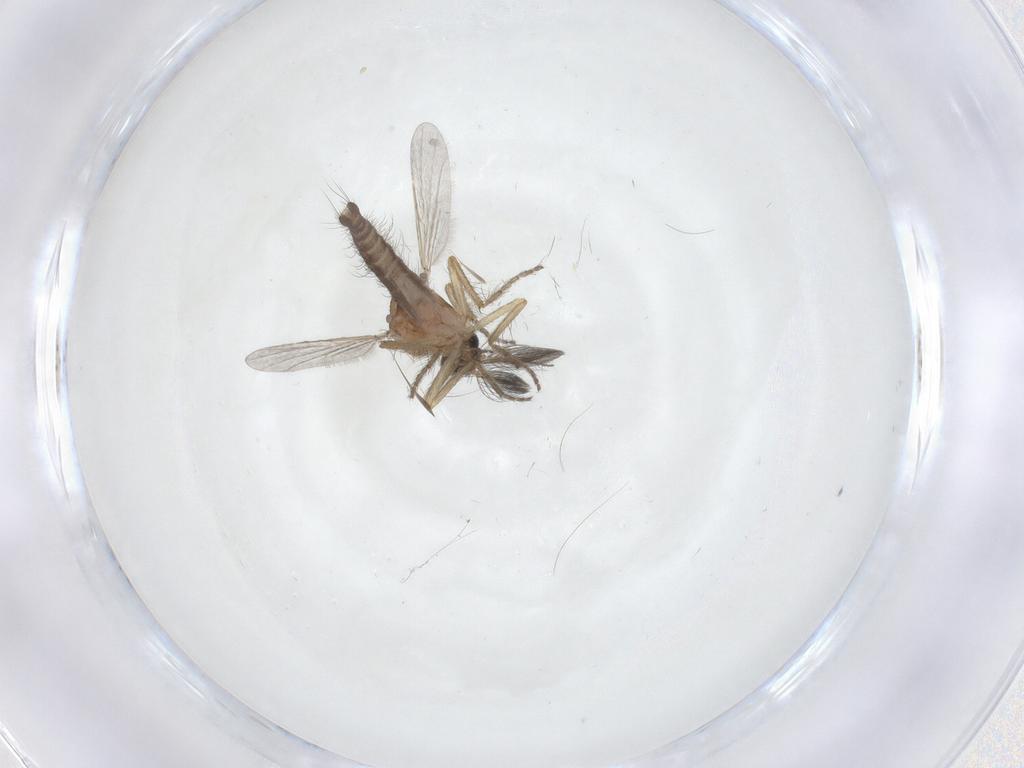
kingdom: Animalia
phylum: Arthropoda
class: Insecta
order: Diptera
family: Ceratopogonidae
